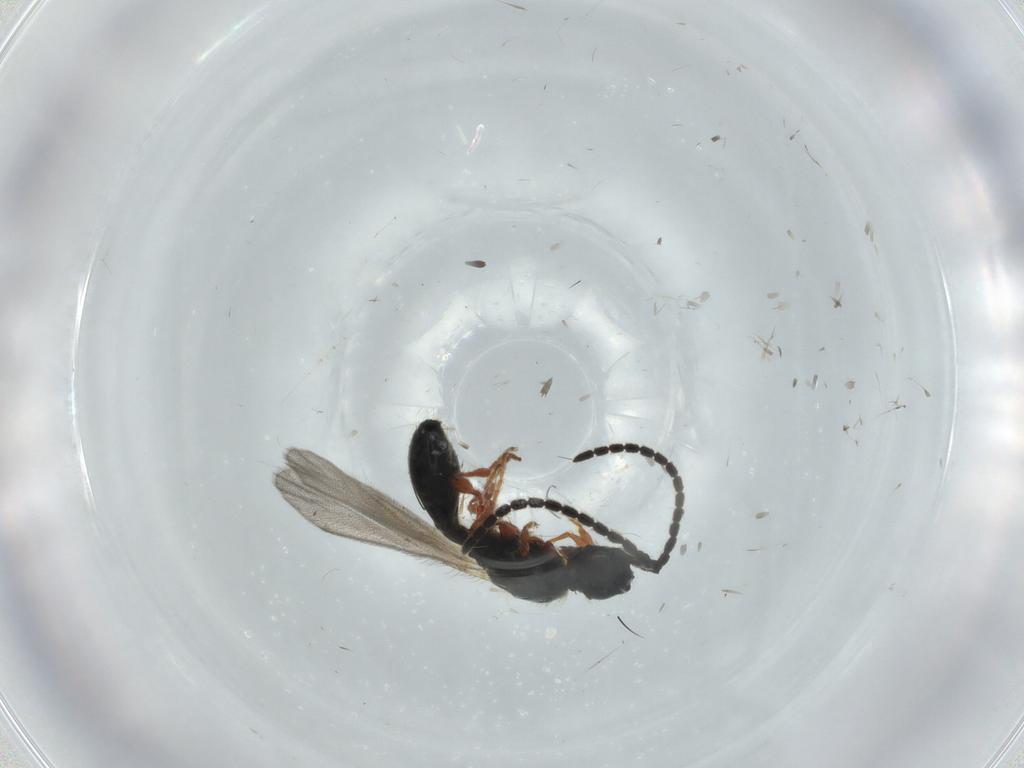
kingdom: Animalia
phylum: Arthropoda
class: Insecta
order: Hymenoptera
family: Diapriidae
